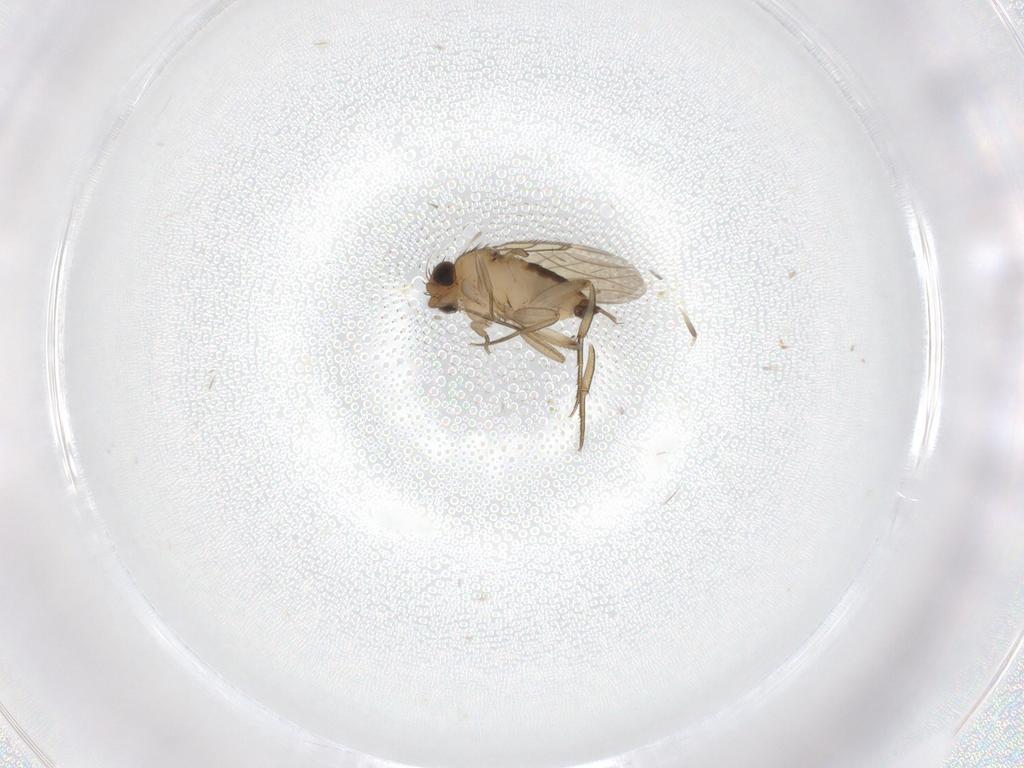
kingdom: Animalia
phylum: Arthropoda
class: Insecta
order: Diptera
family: Phoridae
